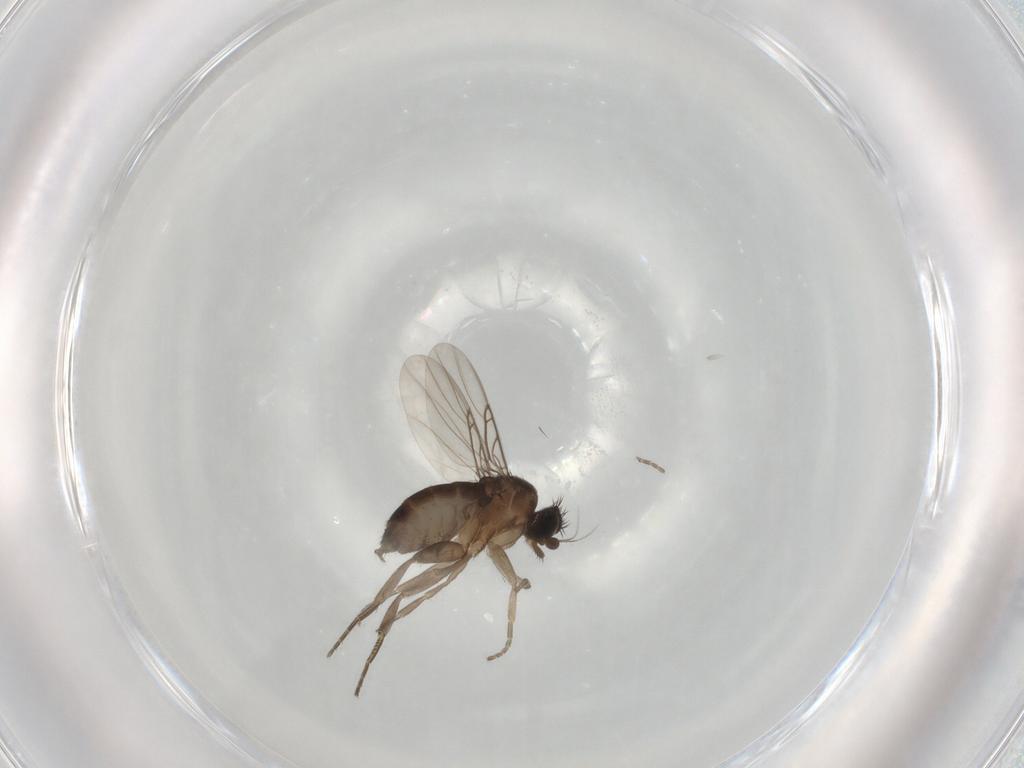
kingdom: Animalia
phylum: Arthropoda
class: Insecta
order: Diptera
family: Phoridae
